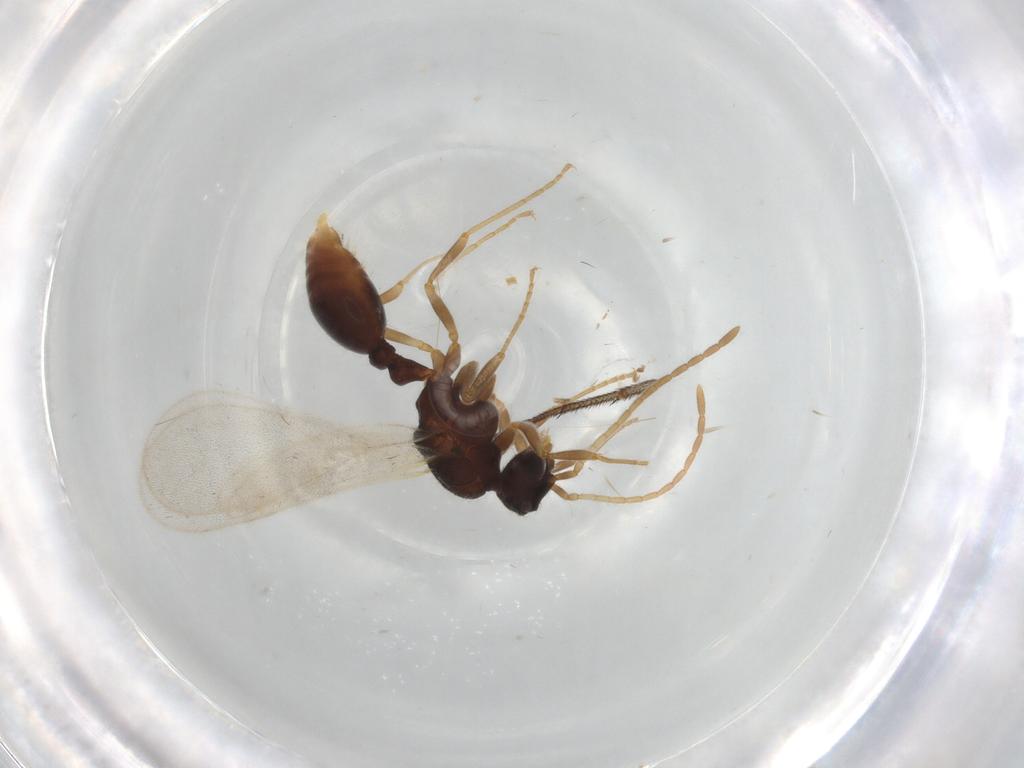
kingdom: Animalia
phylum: Arthropoda
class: Insecta
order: Hymenoptera
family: Formicidae
